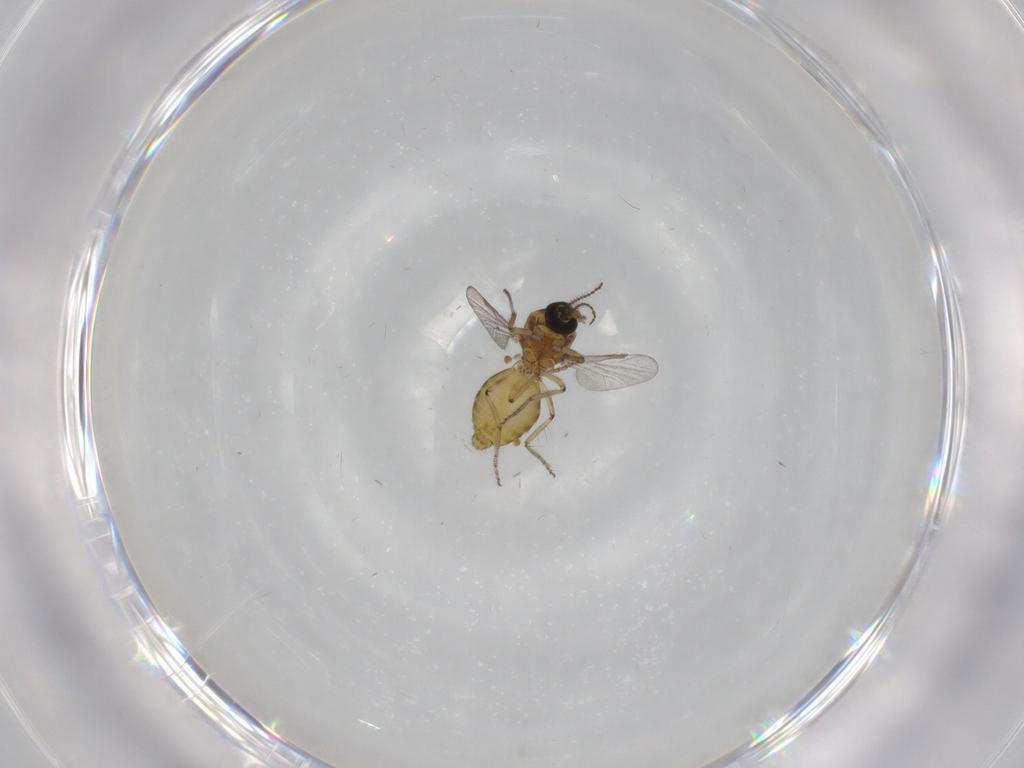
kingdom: Animalia
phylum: Arthropoda
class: Insecta
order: Diptera
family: Ceratopogonidae
